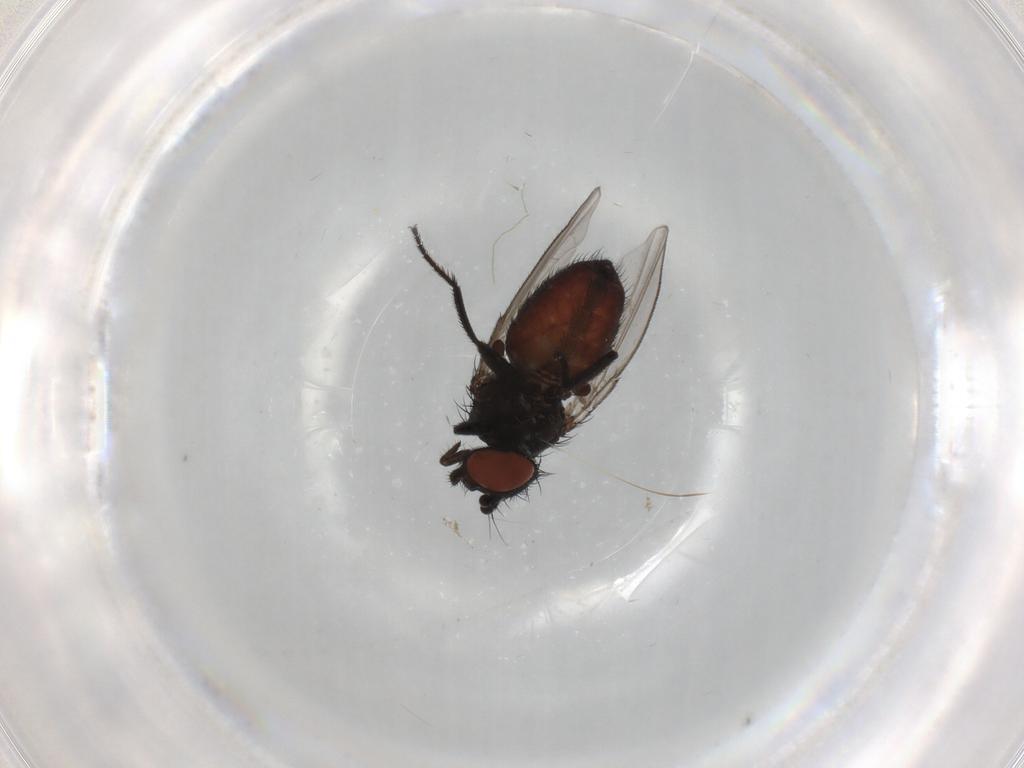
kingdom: Animalia
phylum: Arthropoda
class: Insecta
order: Diptera
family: Milichiidae
